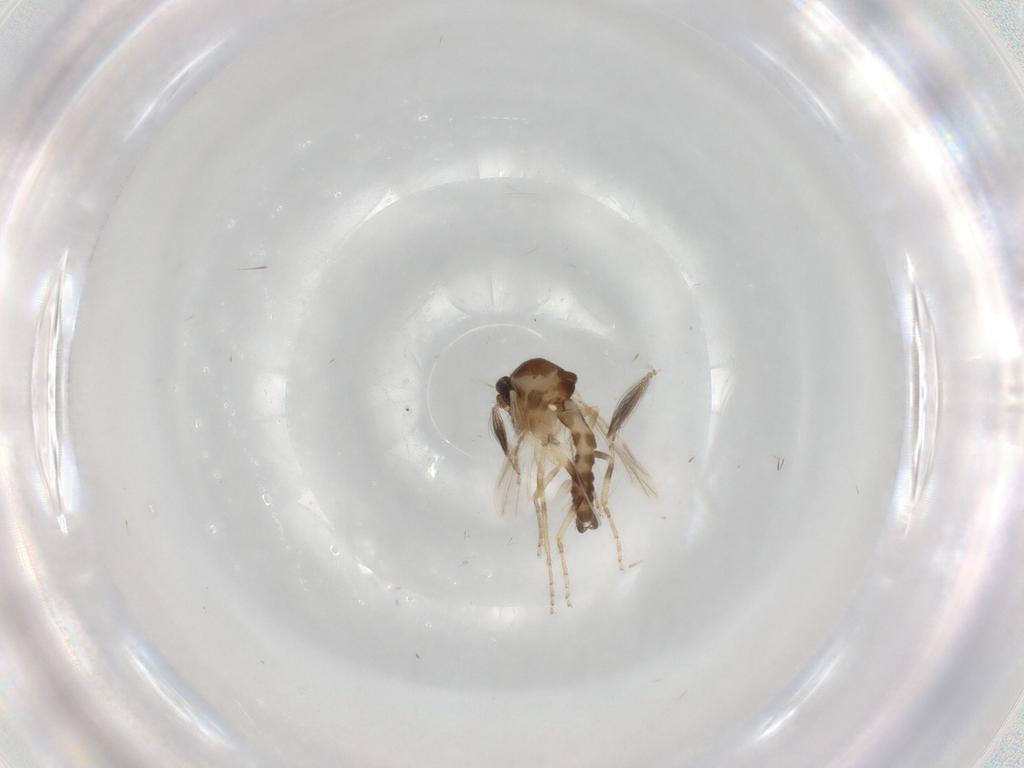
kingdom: Animalia
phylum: Arthropoda
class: Insecta
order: Diptera
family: Ceratopogonidae
